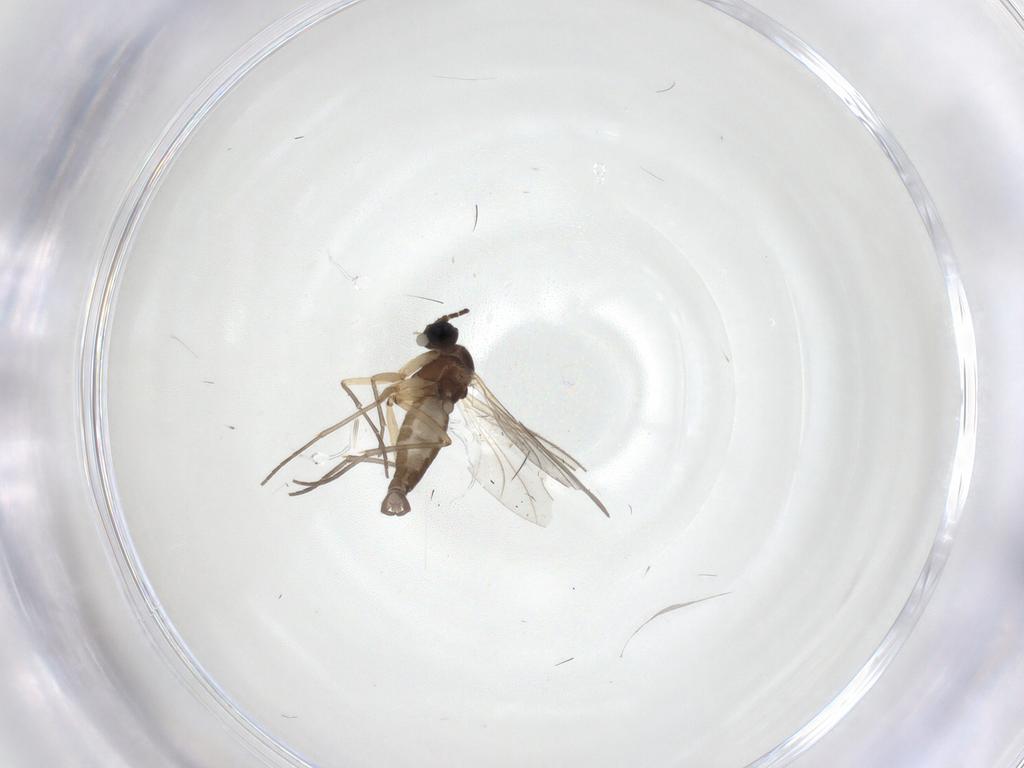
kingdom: Animalia
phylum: Arthropoda
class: Insecta
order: Diptera
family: Sciaridae
